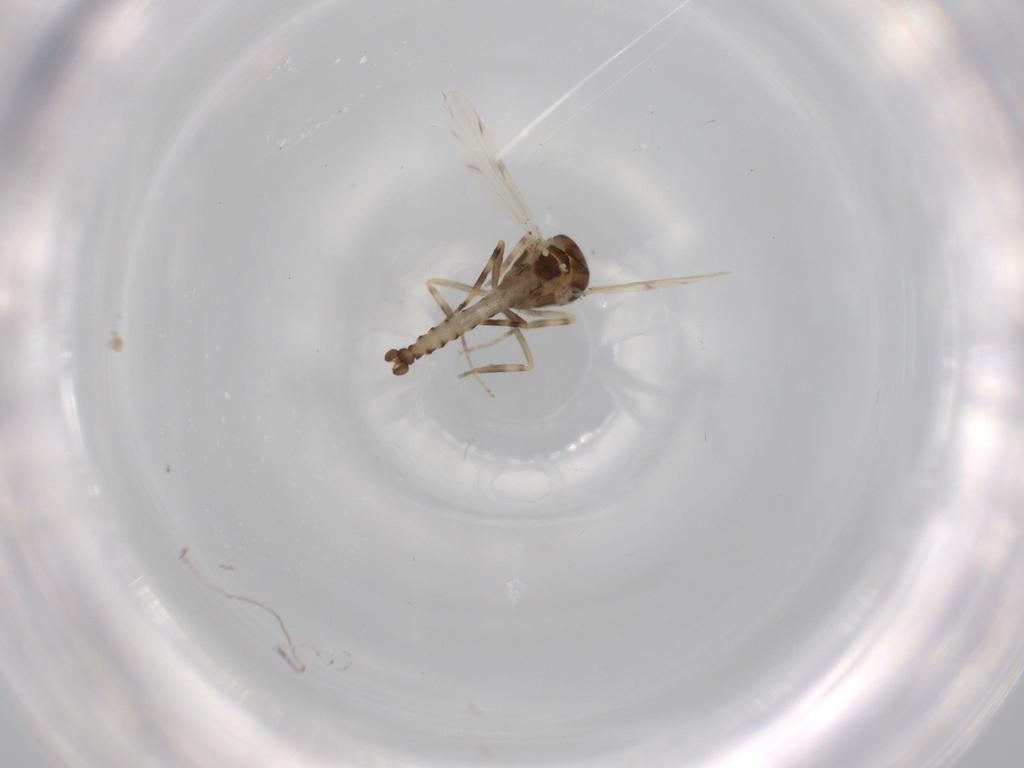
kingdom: Animalia
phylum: Arthropoda
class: Insecta
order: Diptera
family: Ceratopogonidae
